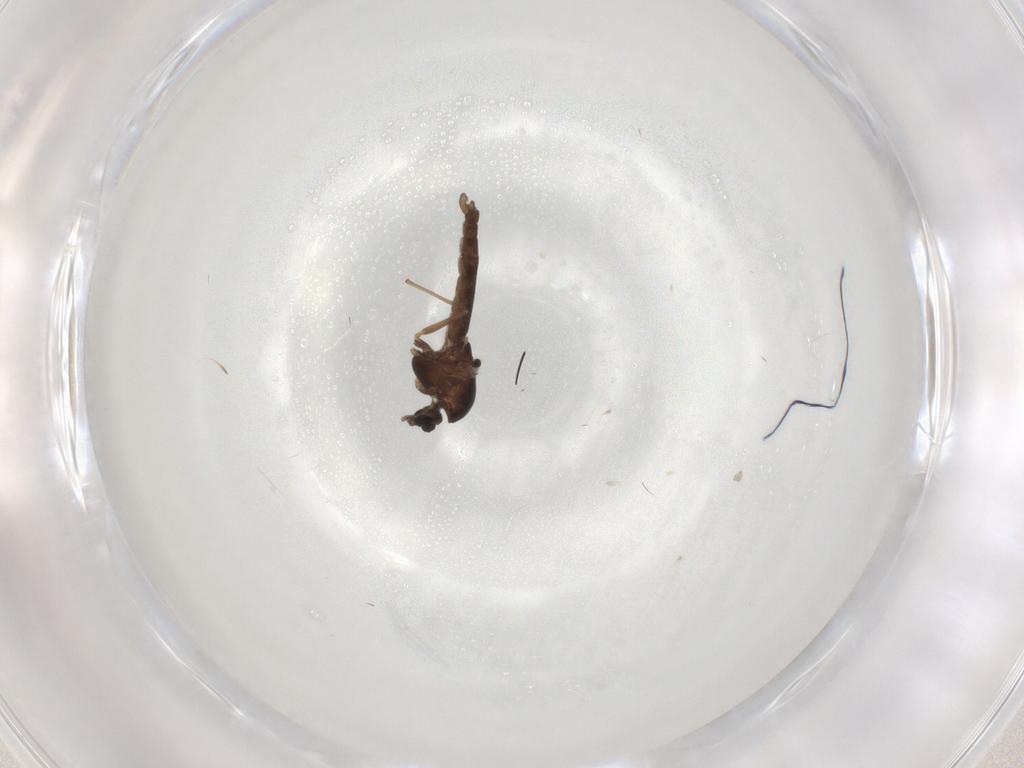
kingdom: Animalia
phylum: Arthropoda
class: Insecta
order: Diptera
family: Chironomidae
